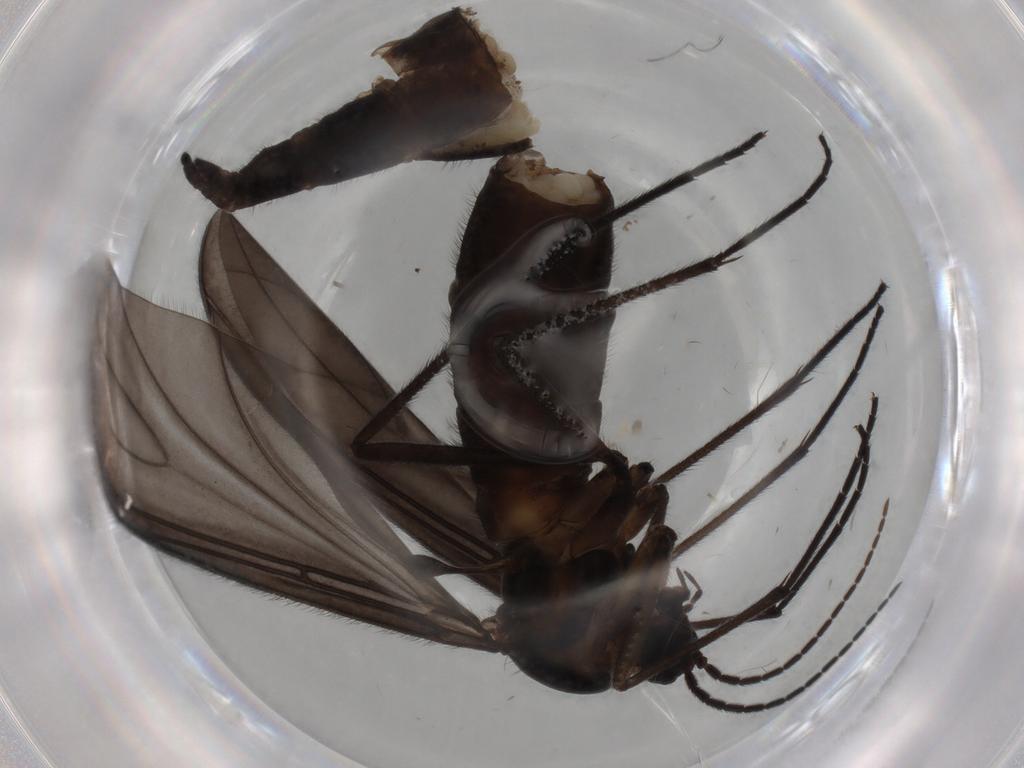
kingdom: Animalia
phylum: Arthropoda
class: Insecta
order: Diptera
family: Sciaridae
